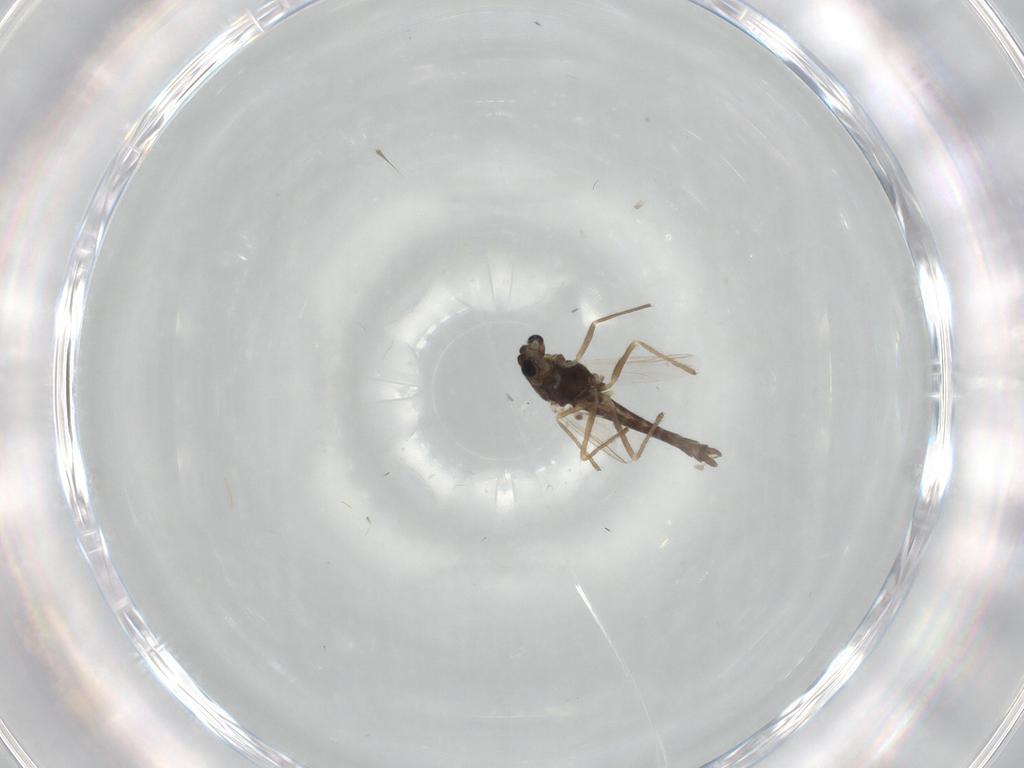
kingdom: Animalia
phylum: Arthropoda
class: Insecta
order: Diptera
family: Chironomidae
